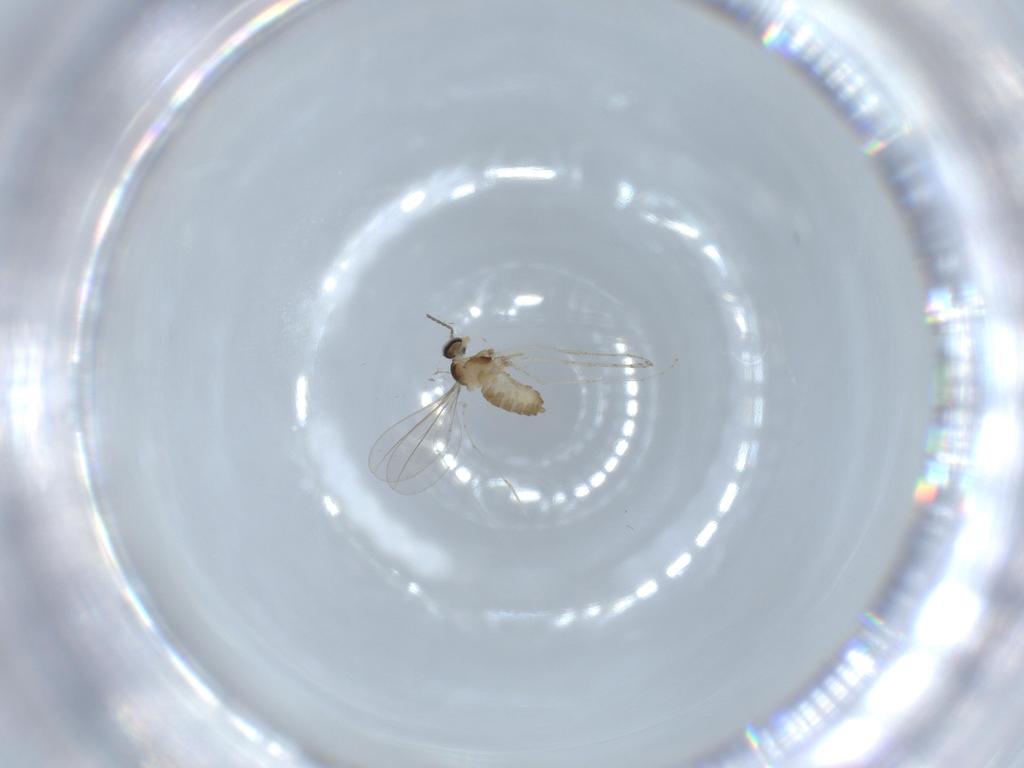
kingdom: Animalia
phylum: Arthropoda
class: Insecta
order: Diptera
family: Cecidomyiidae
